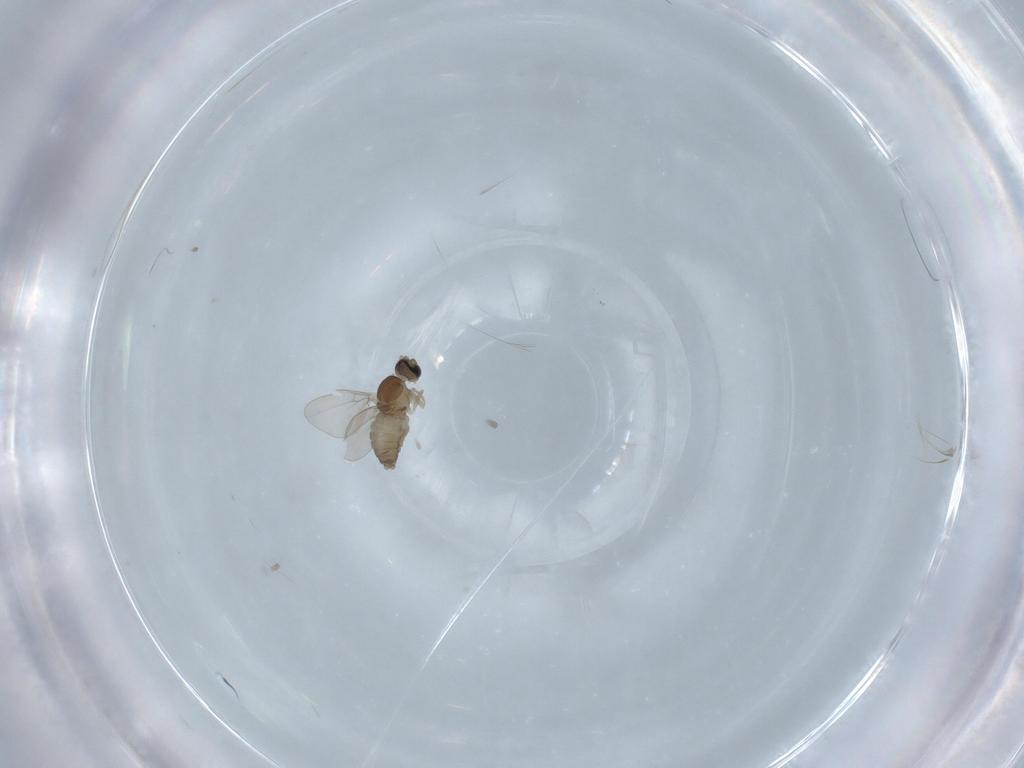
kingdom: Animalia
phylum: Arthropoda
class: Insecta
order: Diptera
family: Cecidomyiidae
